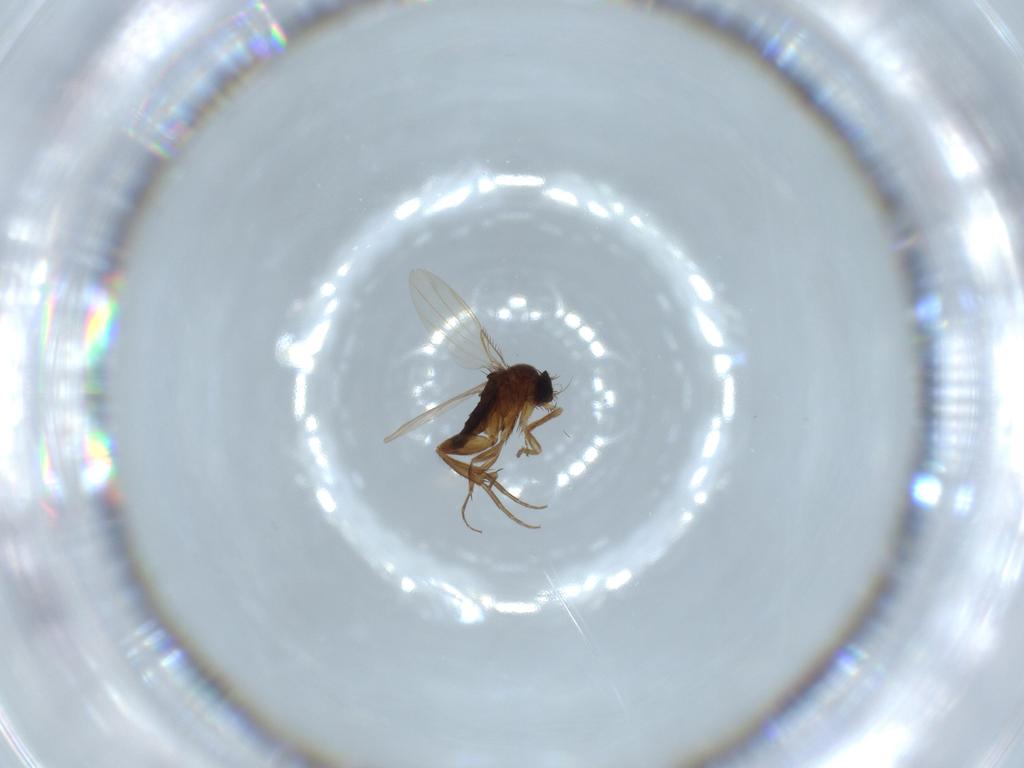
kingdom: Animalia
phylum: Arthropoda
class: Insecta
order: Diptera
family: Phoridae
